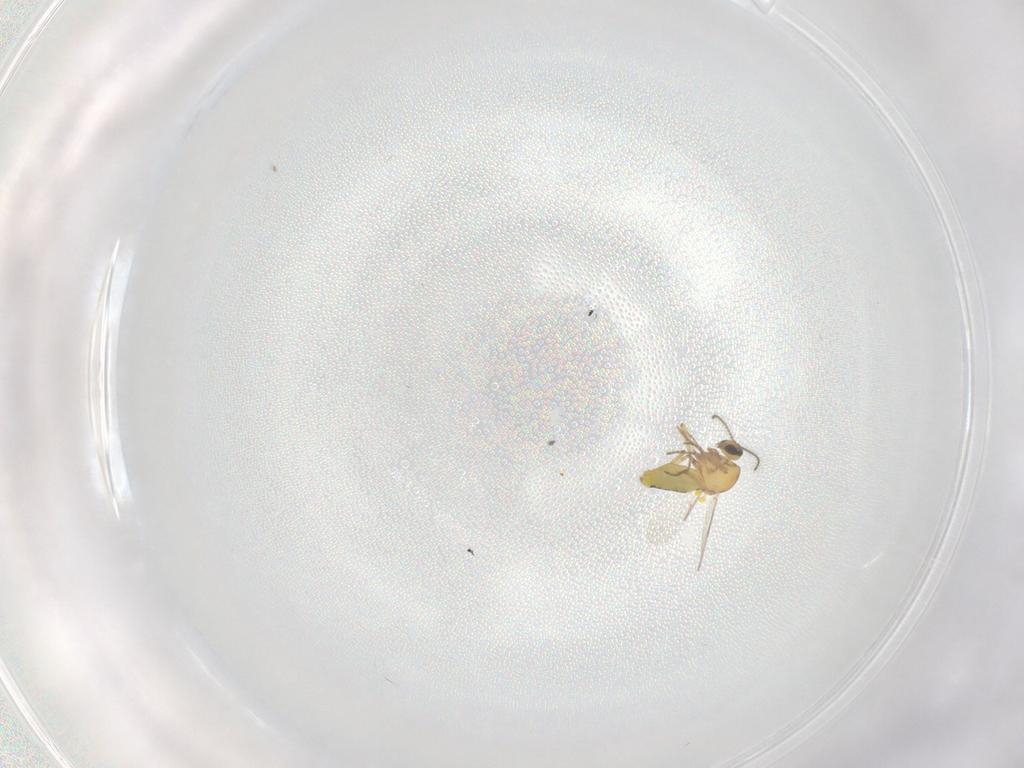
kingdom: Animalia
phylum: Arthropoda
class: Insecta
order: Diptera
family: Ceratopogonidae
